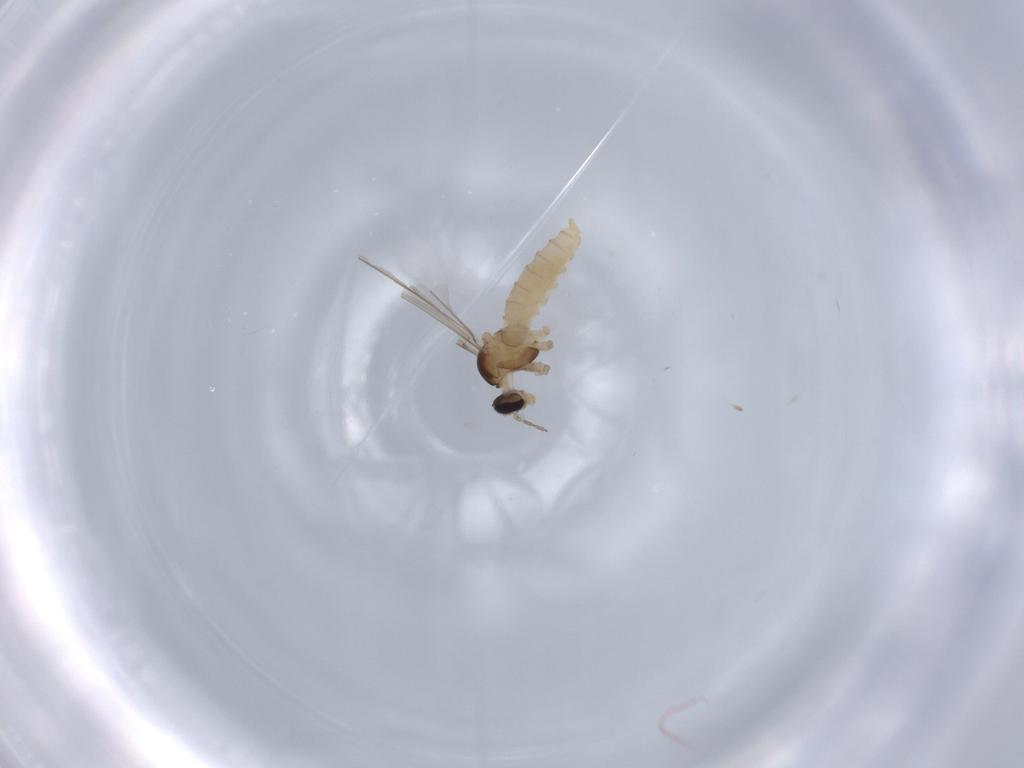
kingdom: Animalia
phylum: Arthropoda
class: Insecta
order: Diptera
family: Cecidomyiidae
